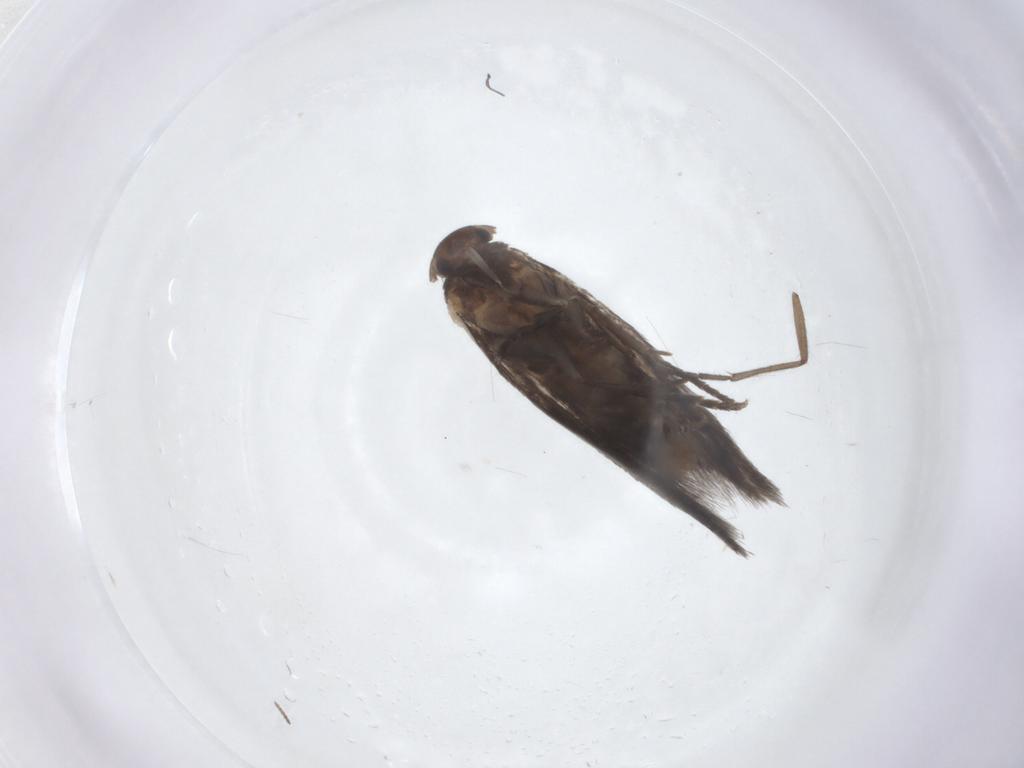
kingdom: Animalia
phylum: Arthropoda
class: Insecta
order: Lepidoptera
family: Elachistidae
